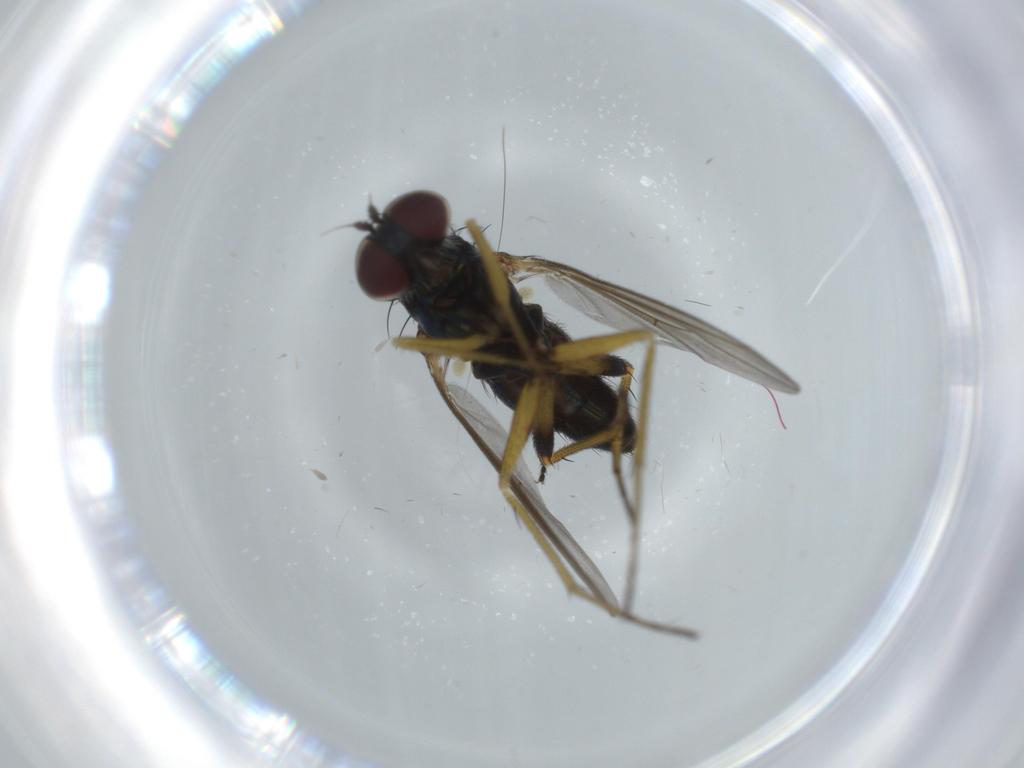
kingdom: Animalia
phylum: Arthropoda
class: Insecta
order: Diptera
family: Dolichopodidae
